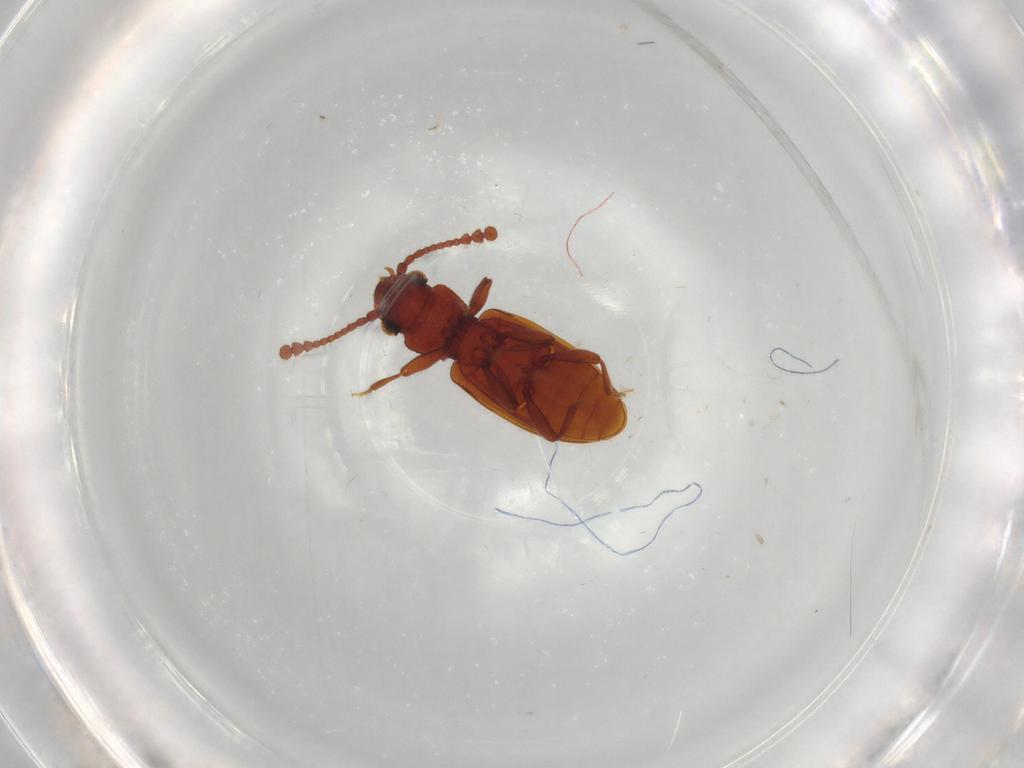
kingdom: Animalia
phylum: Arthropoda
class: Insecta
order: Coleoptera
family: Silvanidae
